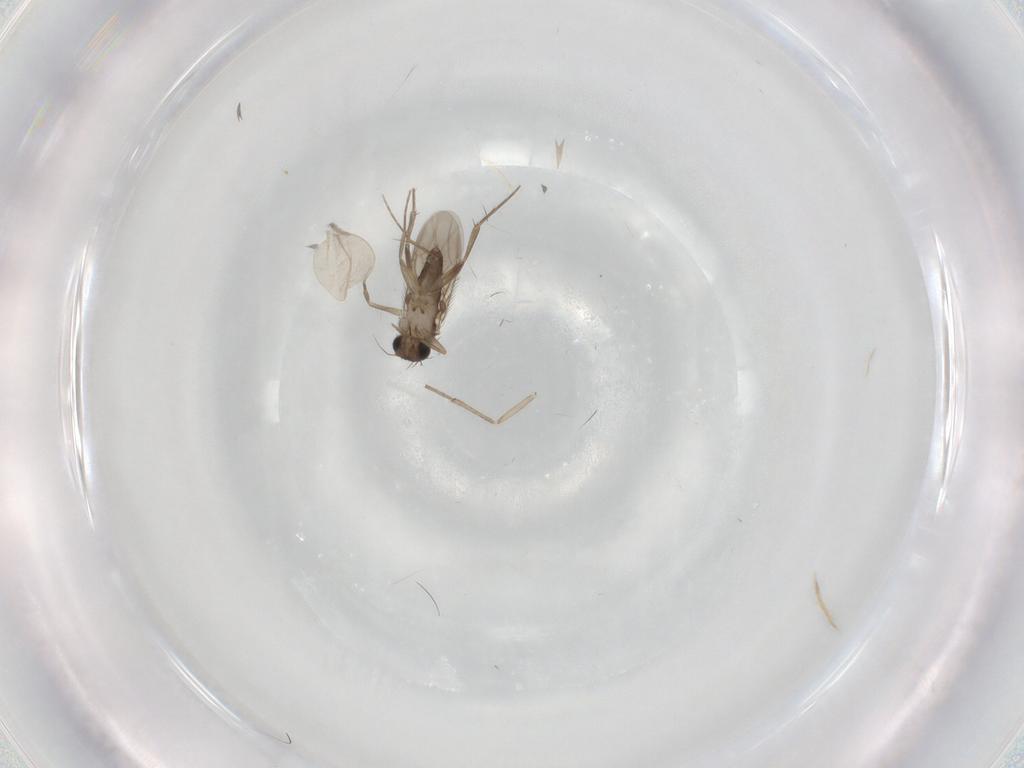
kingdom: Animalia
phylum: Arthropoda
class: Insecta
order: Diptera
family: Phoridae
